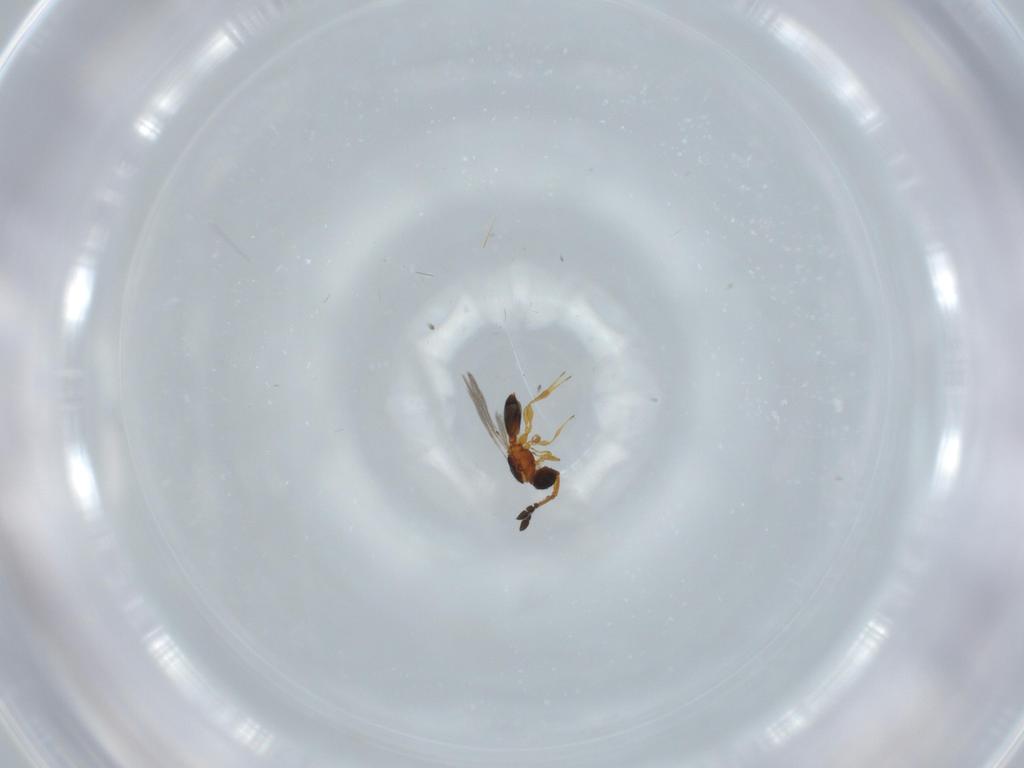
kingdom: Animalia
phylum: Arthropoda
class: Insecta
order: Hymenoptera
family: Diapriidae
